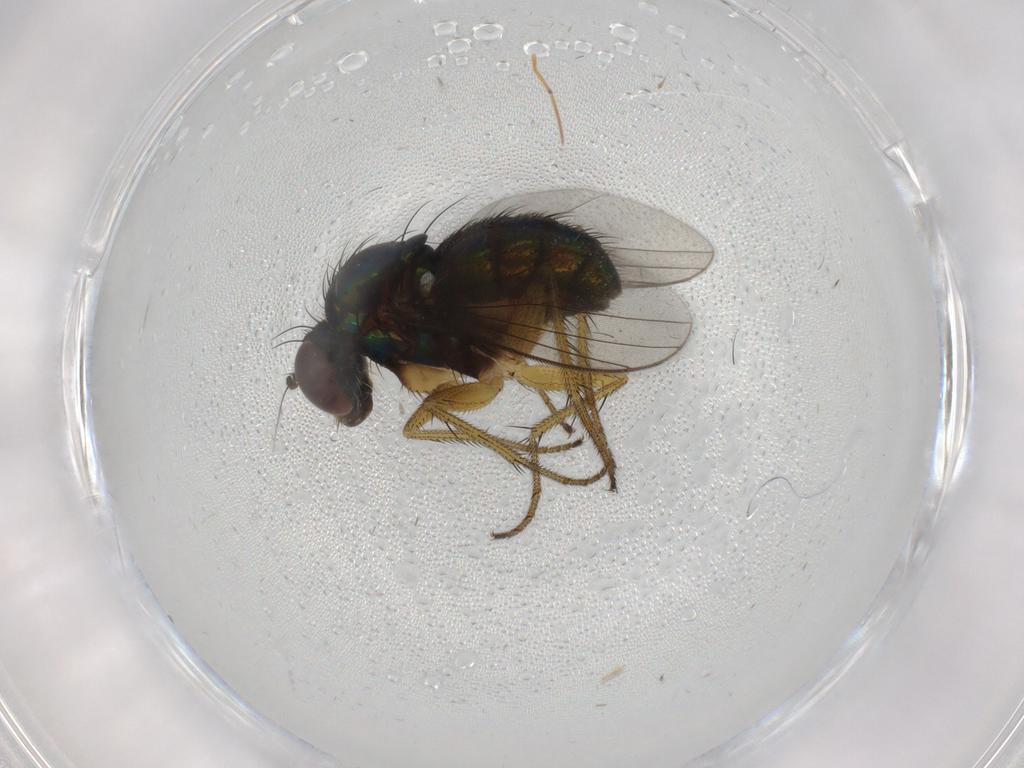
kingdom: Animalia
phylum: Arthropoda
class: Insecta
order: Diptera
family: Dolichopodidae
